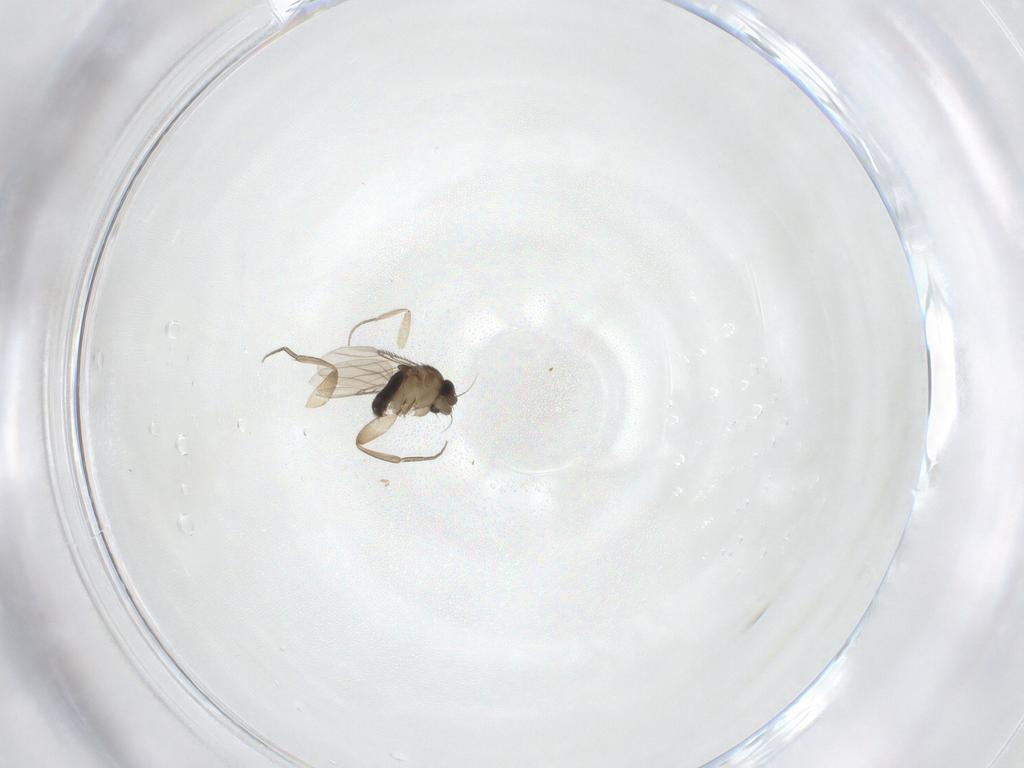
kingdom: Animalia
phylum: Arthropoda
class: Insecta
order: Diptera
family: Phoridae
